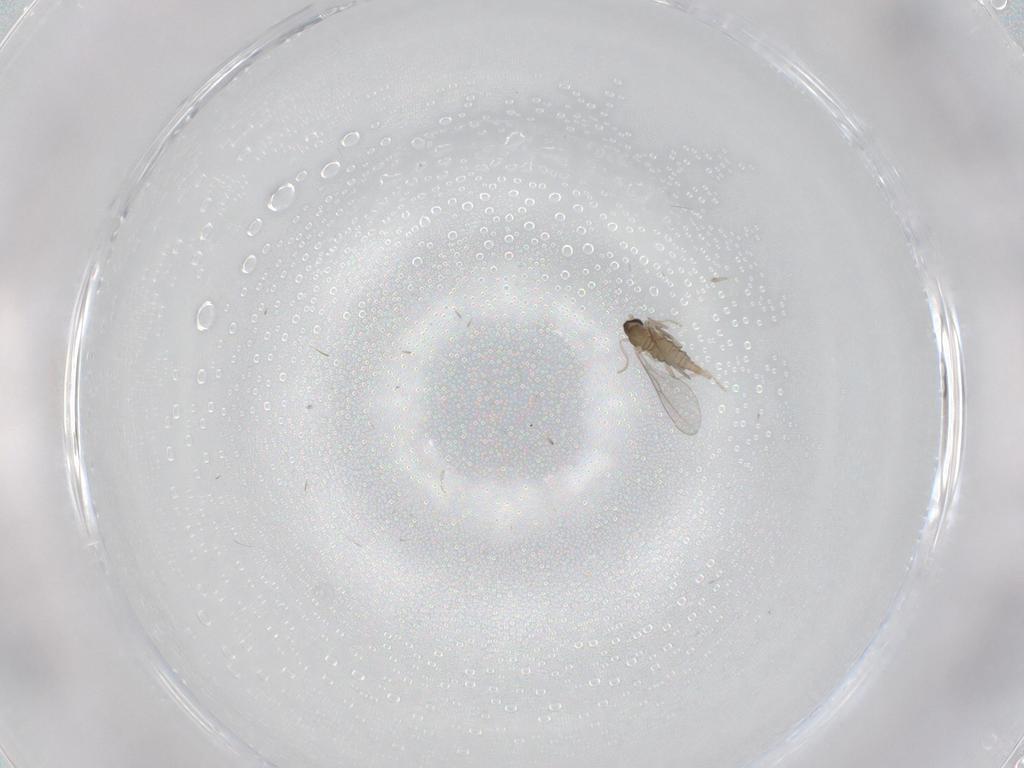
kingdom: Animalia
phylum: Arthropoda
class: Insecta
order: Diptera
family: Cecidomyiidae
